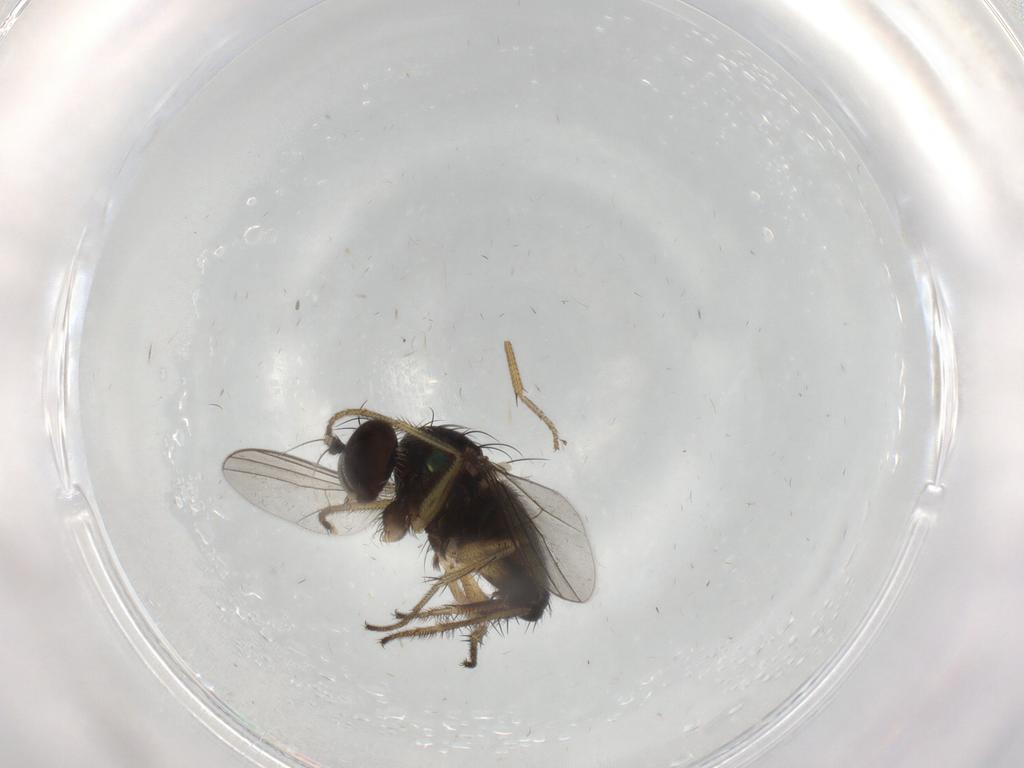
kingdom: Animalia
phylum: Arthropoda
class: Insecta
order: Diptera
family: Dolichopodidae
